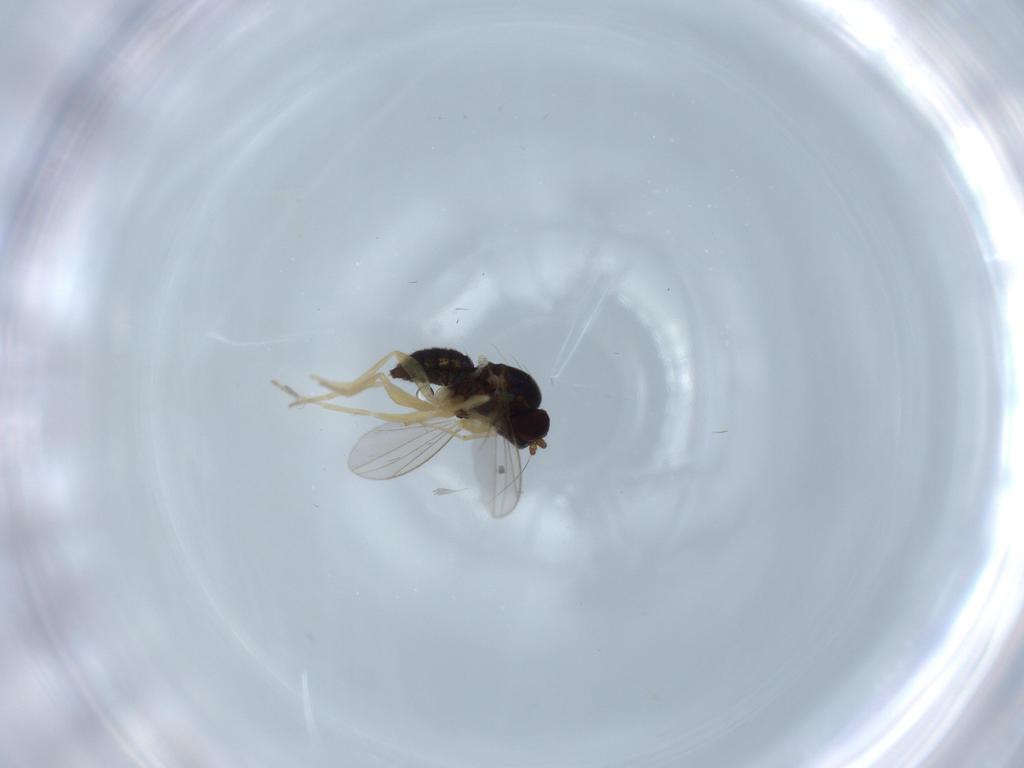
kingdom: Animalia
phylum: Arthropoda
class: Insecta
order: Diptera
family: Dolichopodidae
